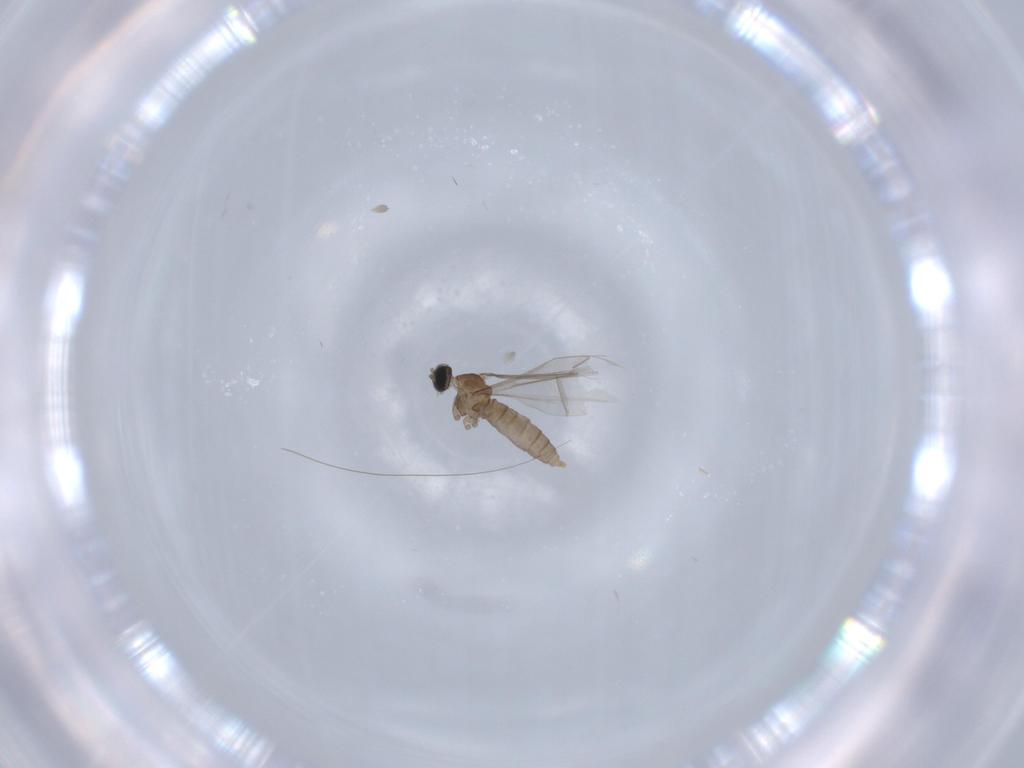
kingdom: Animalia
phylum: Arthropoda
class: Insecta
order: Diptera
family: Cecidomyiidae
